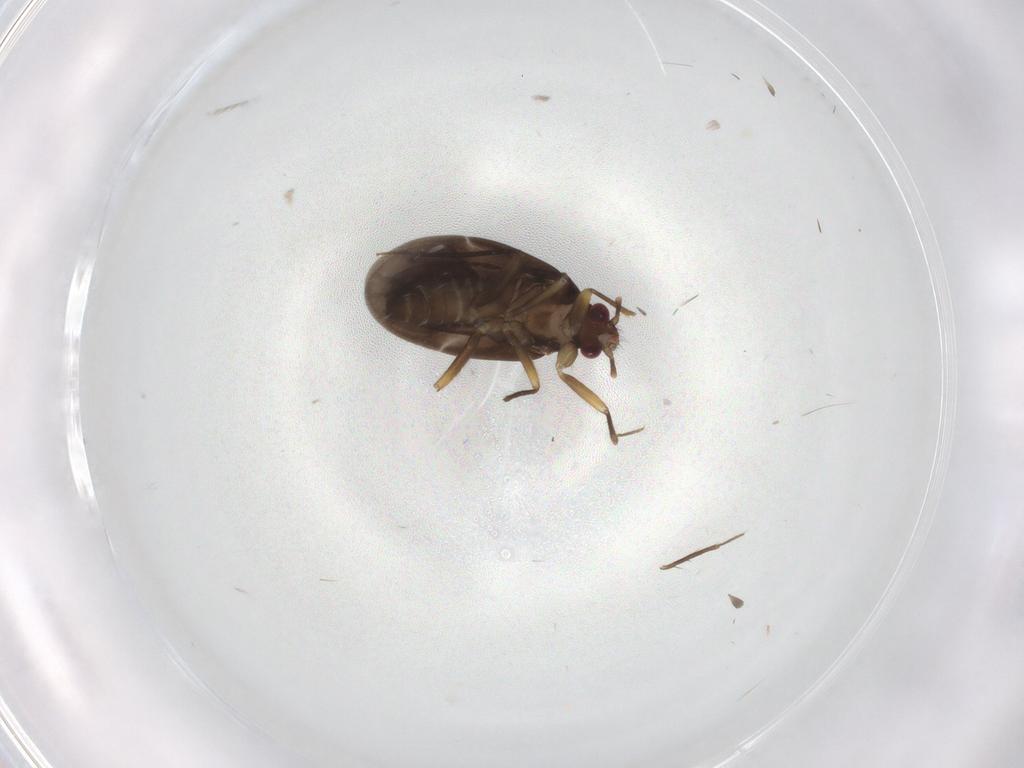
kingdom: Animalia
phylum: Arthropoda
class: Insecta
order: Hemiptera
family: Ceratocombidae
